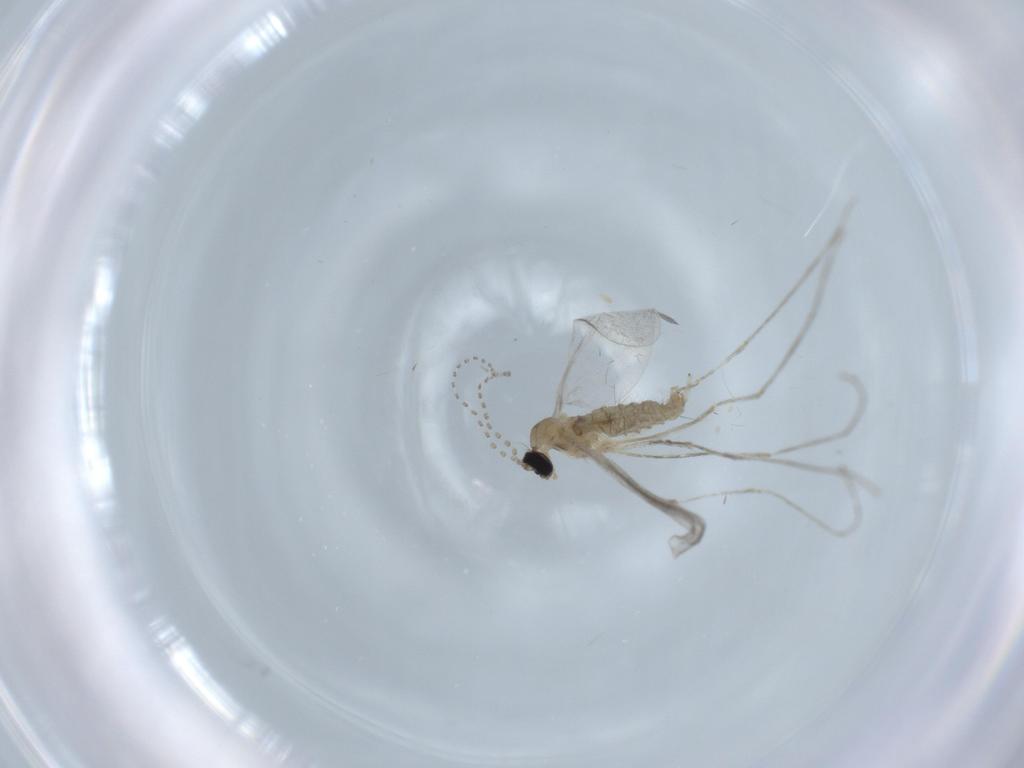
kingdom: Animalia
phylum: Arthropoda
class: Insecta
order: Diptera
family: Cecidomyiidae
